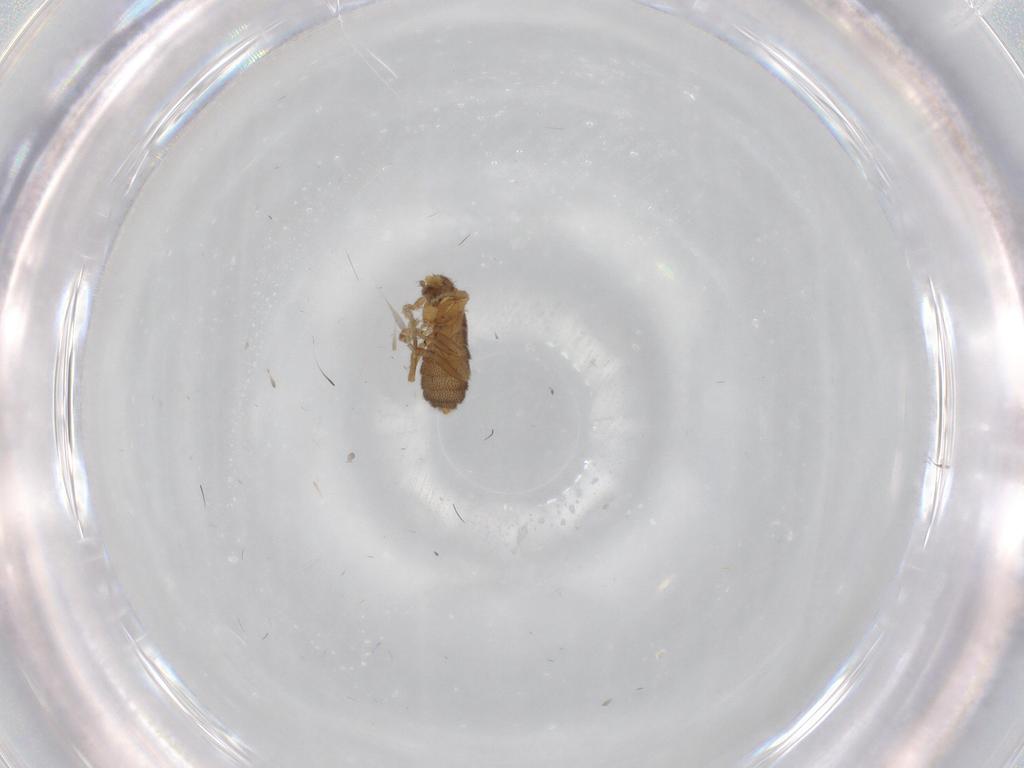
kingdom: Animalia
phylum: Arthropoda
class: Insecta
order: Diptera
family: Phoridae
